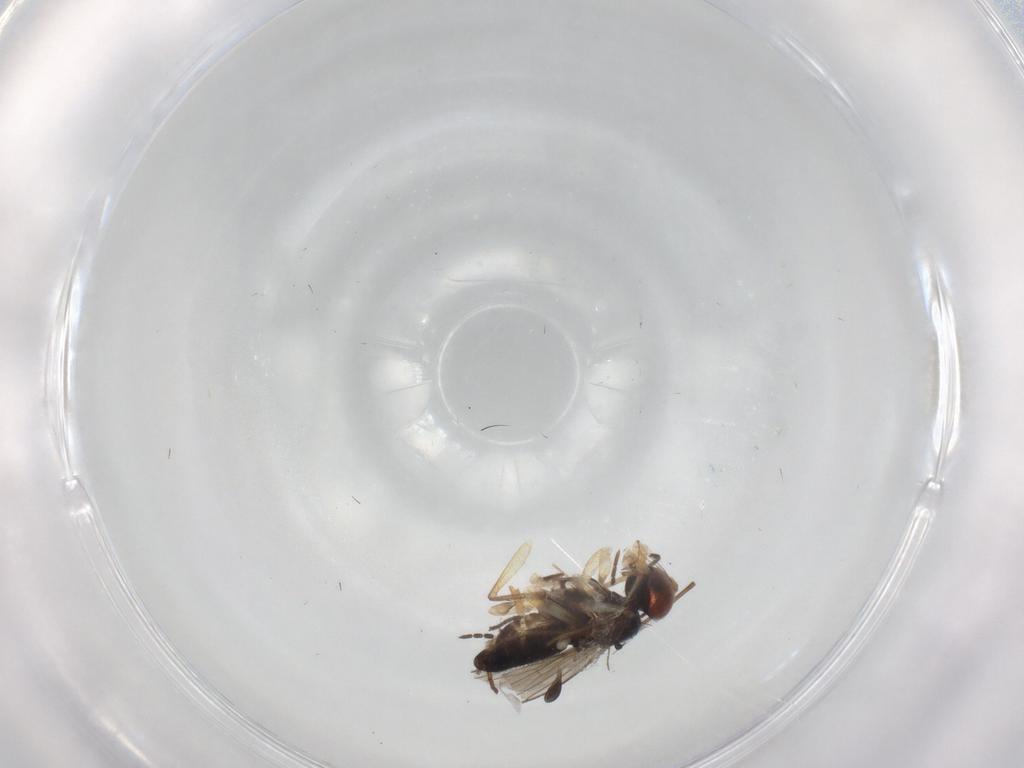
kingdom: Animalia
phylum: Arthropoda
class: Insecta
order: Diptera
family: Dolichopodidae
